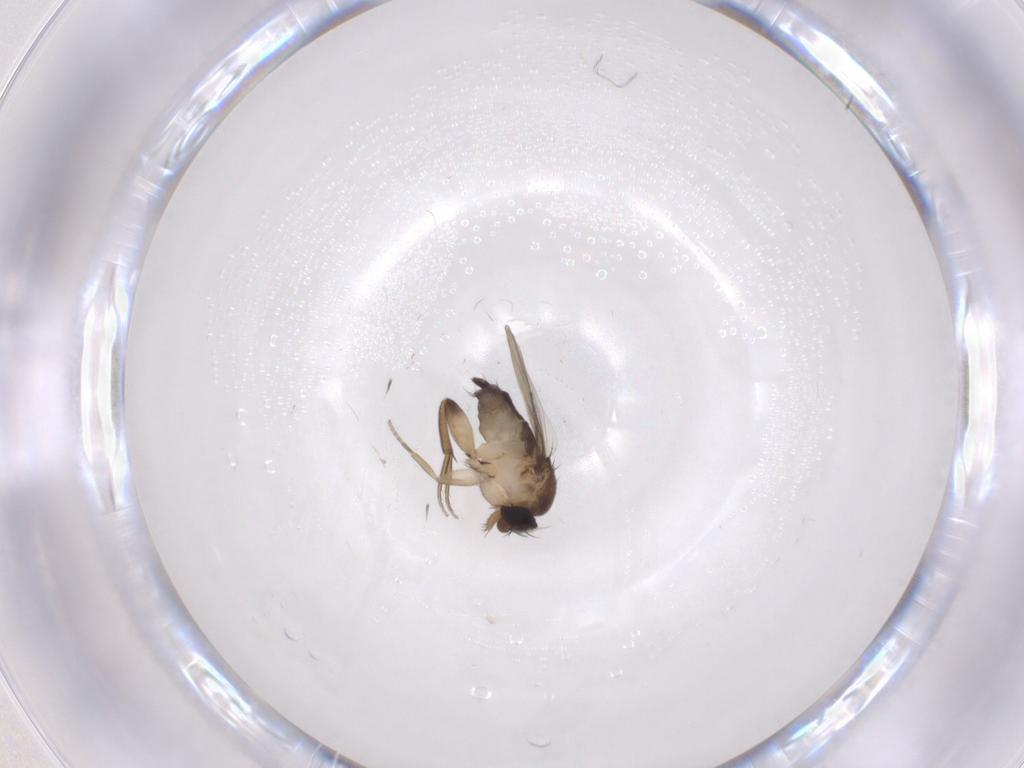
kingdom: Animalia
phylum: Arthropoda
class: Insecta
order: Diptera
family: Phoridae
